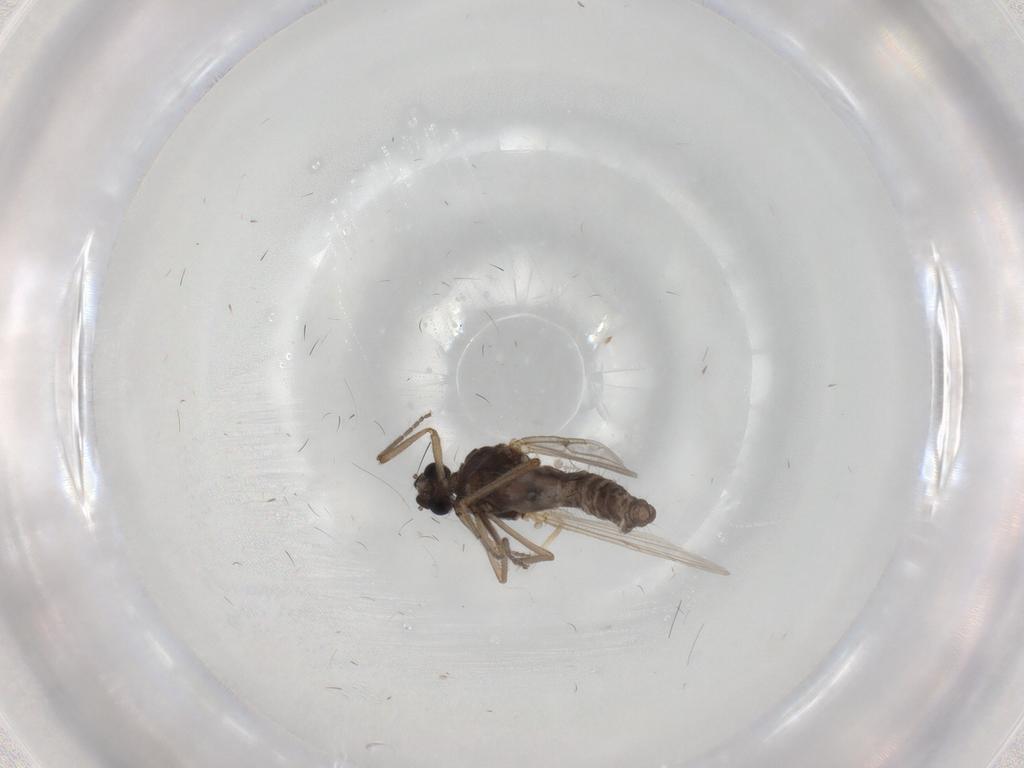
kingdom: Animalia
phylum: Arthropoda
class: Insecta
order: Diptera
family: Ceratopogonidae
